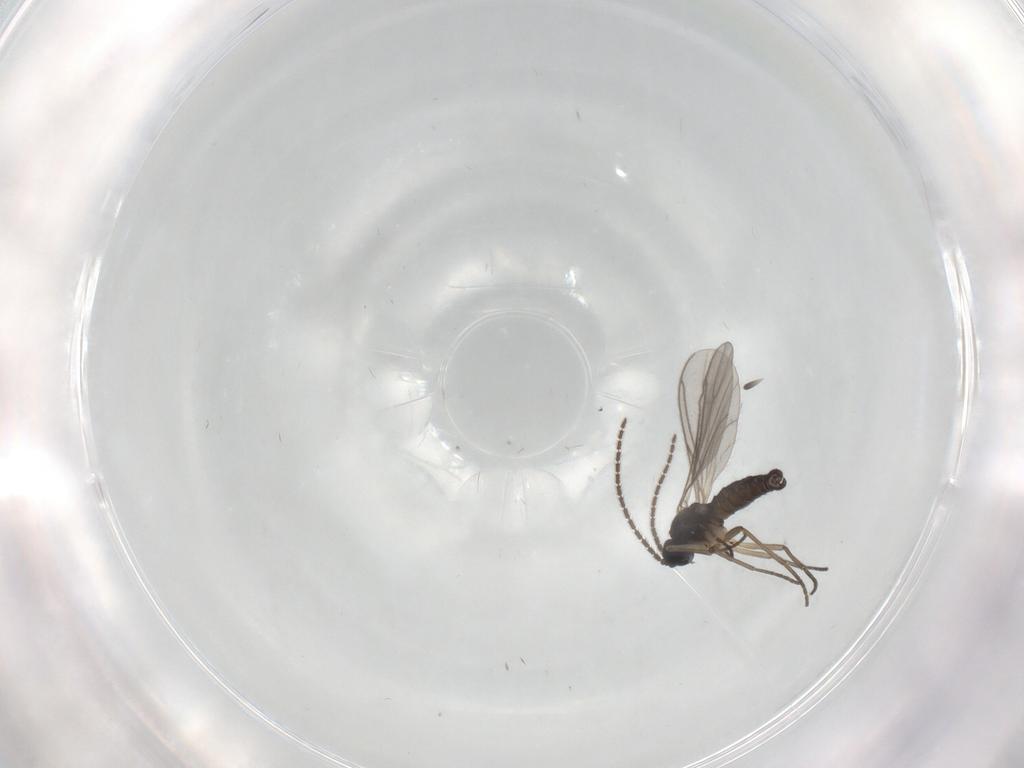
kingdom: Animalia
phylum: Arthropoda
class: Insecta
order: Diptera
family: Sciaridae
